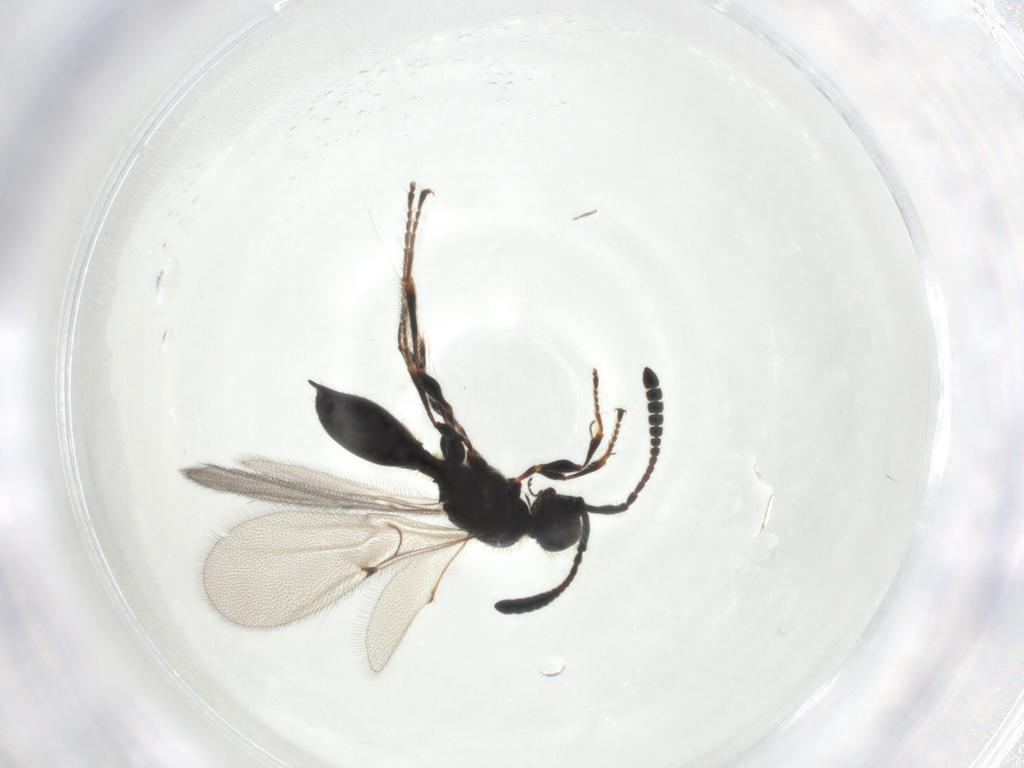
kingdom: Animalia
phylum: Arthropoda
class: Insecta
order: Hymenoptera
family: Diapriidae
